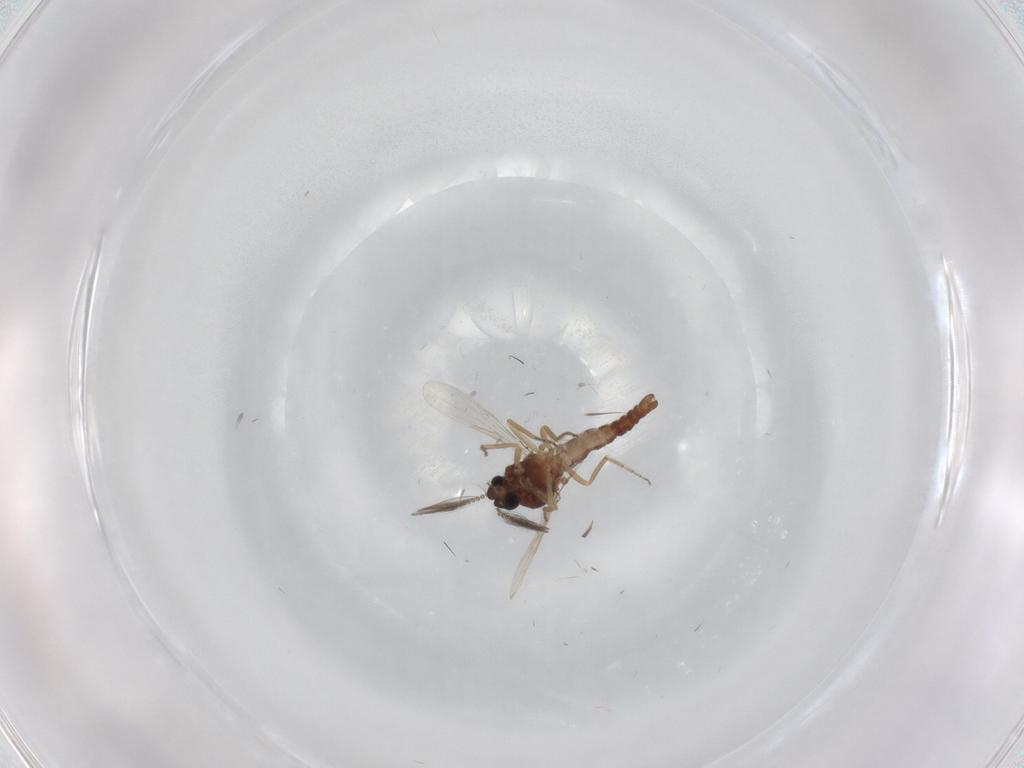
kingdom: Animalia
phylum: Arthropoda
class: Insecta
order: Diptera
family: Ceratopogonidae
